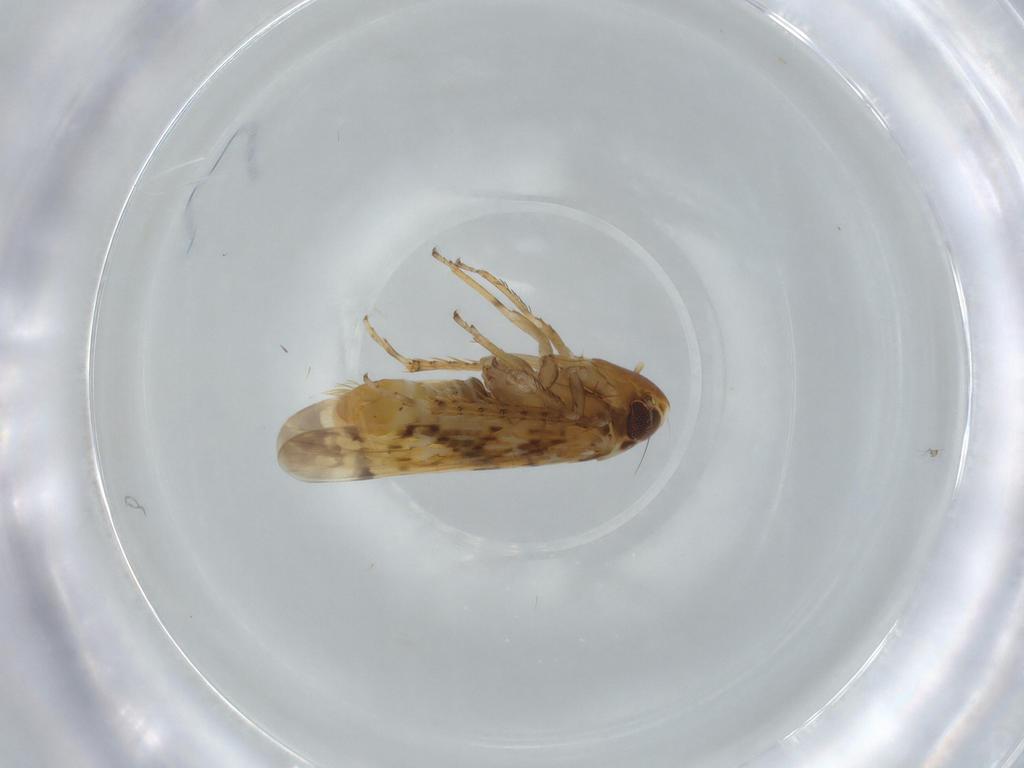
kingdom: Animalia
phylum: Arthropoda
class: Insecta
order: Hemiptera
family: Cicadellidae
